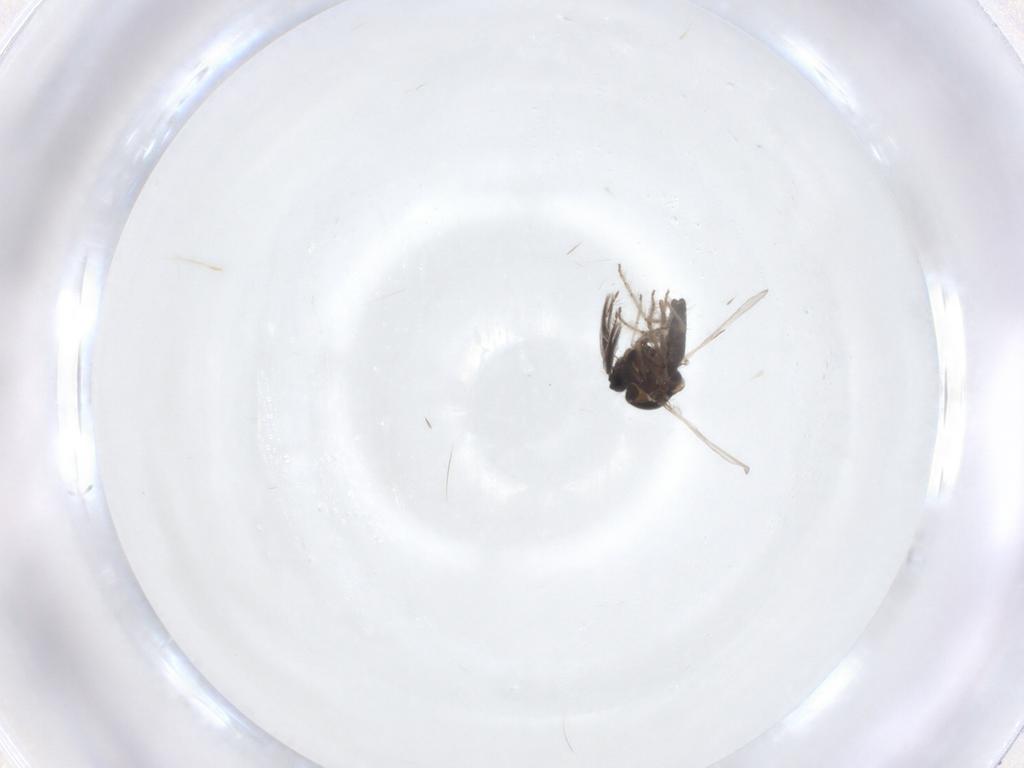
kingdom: Animalia
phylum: Arthropoda
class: Insecta
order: Diptera
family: Ceratopogonidae
